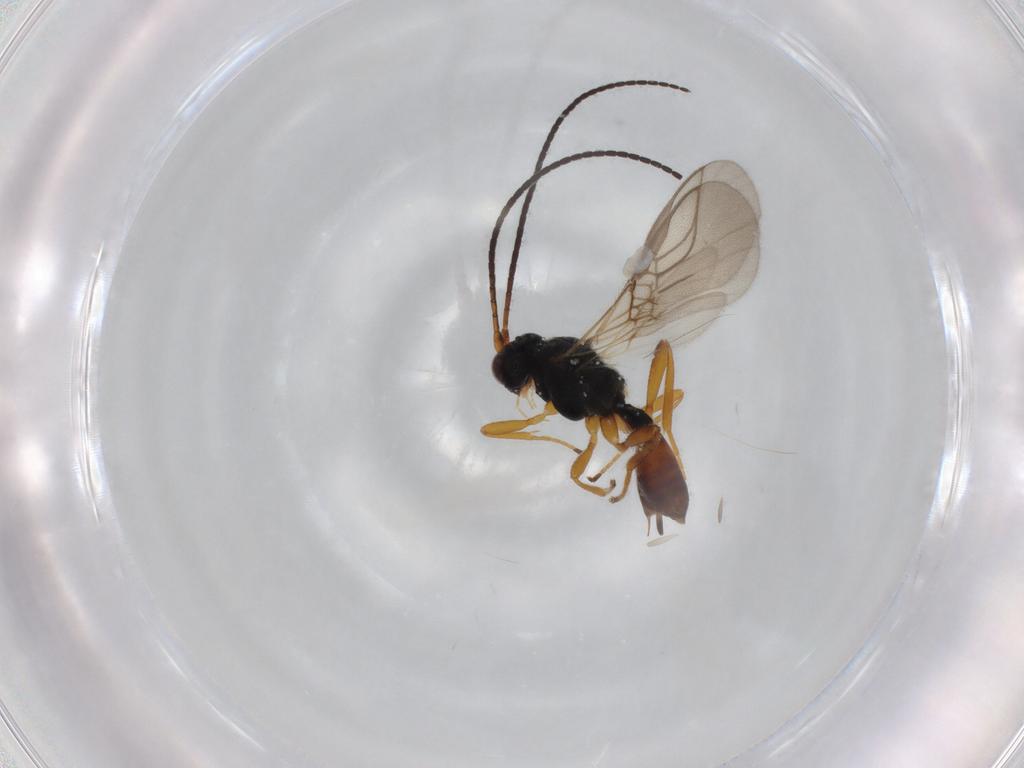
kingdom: Animalia
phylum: Arthropoda
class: Insecta
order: Hymenoptera
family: Braconidae
